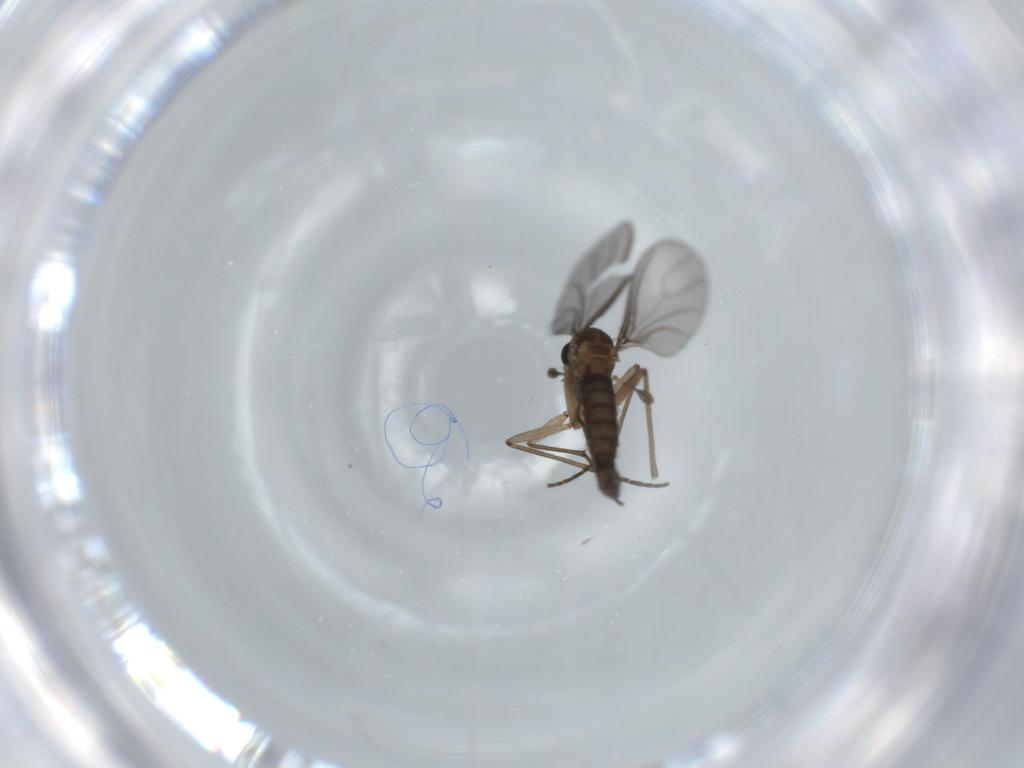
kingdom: Animalia
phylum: Arthropoda
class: Insecta
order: Diptera
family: Sciaridae
